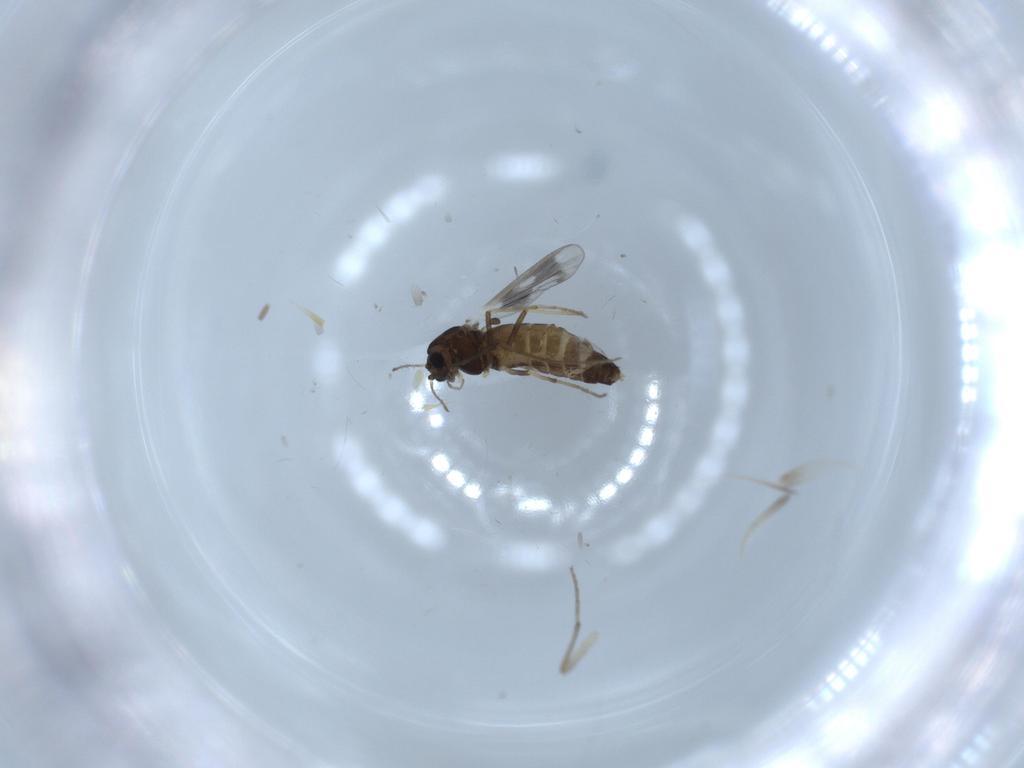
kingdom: Animalia
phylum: Arthropoda
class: Insecta
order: Diptera
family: Chironomidae
